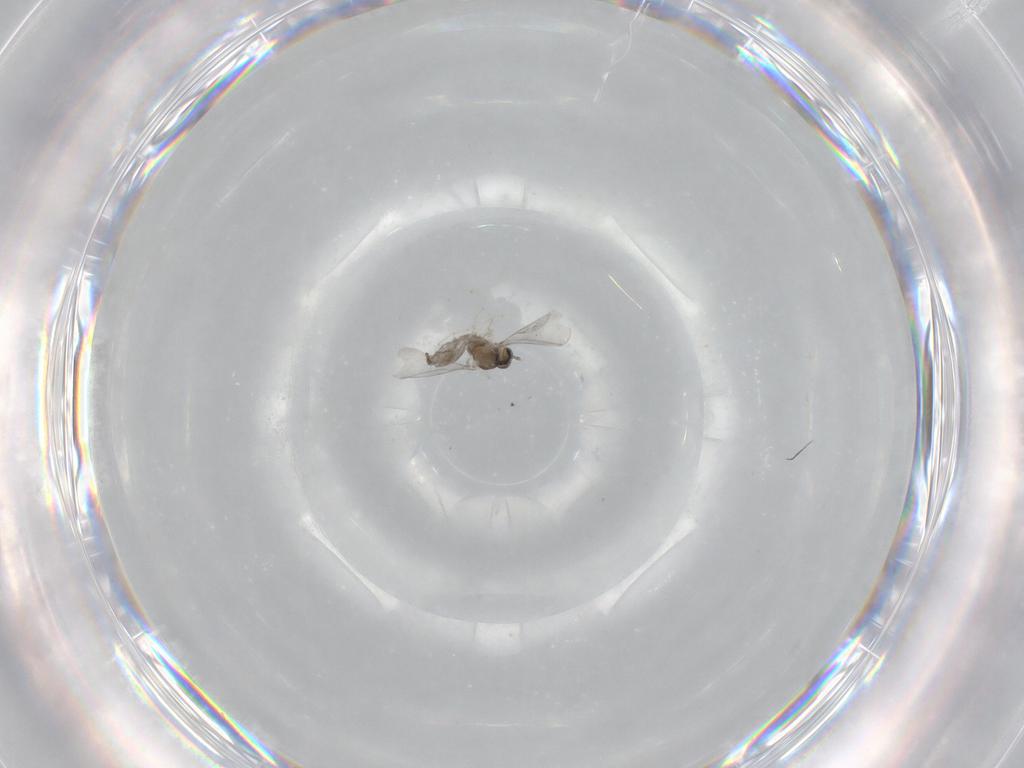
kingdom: Animalia
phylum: Arthropoda
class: Insecta
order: Diptera
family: Cecidomyiidae
